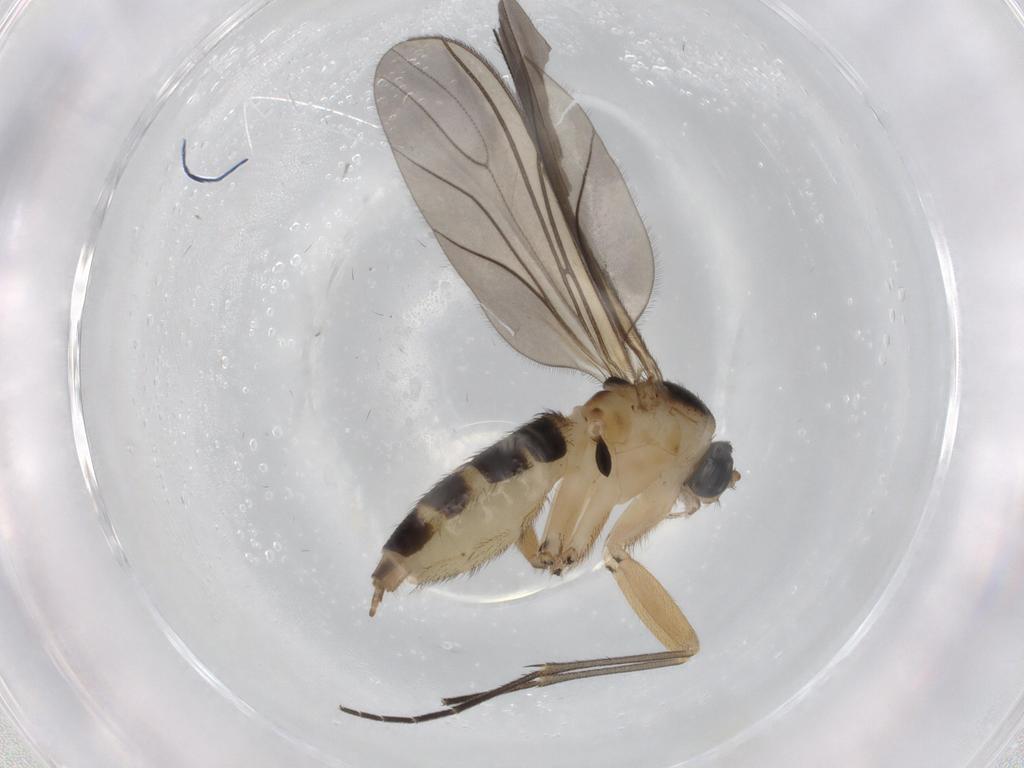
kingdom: Animalia
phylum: Arthropoda
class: Insecta
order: Diptera
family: Sciaridae
